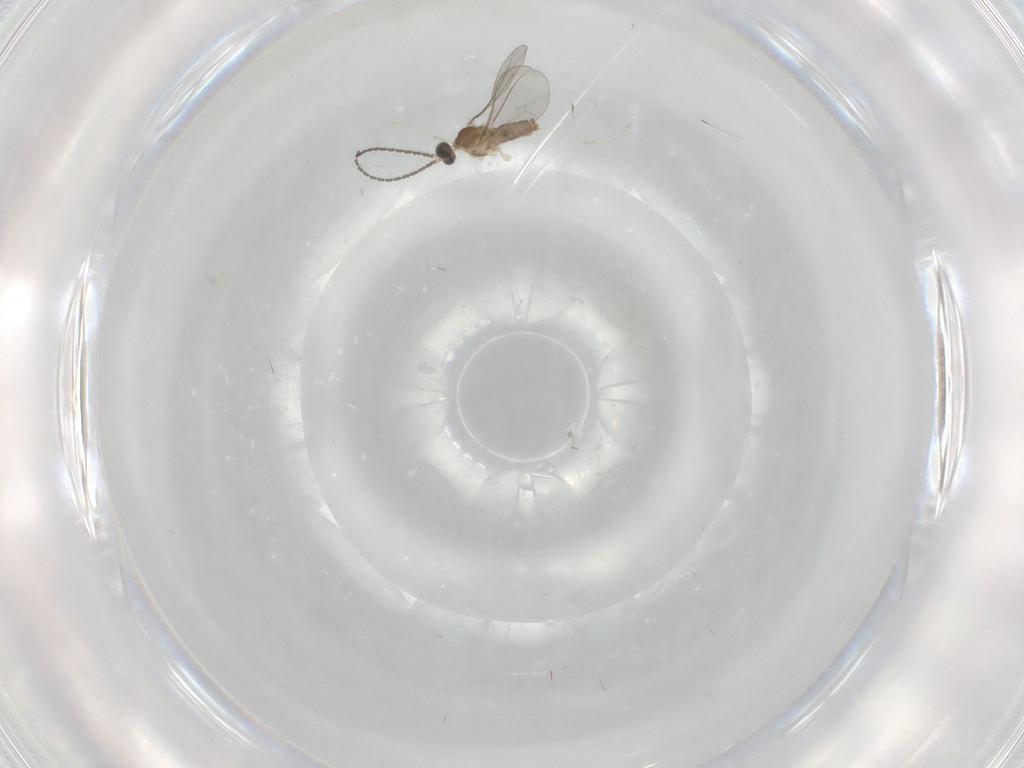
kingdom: Animalia
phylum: Arthropoda
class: Insecta
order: Diptera
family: Cecidomyiidae
